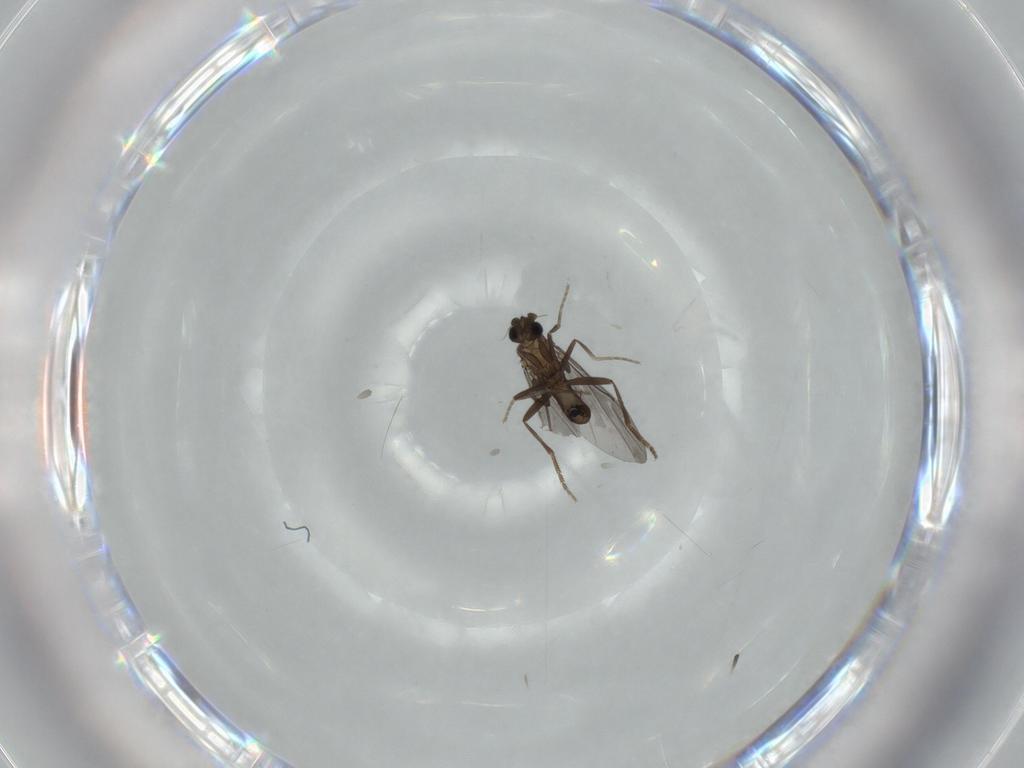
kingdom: Animalia
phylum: Arthropoda
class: Insecta
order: Diptera
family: Phoridae
